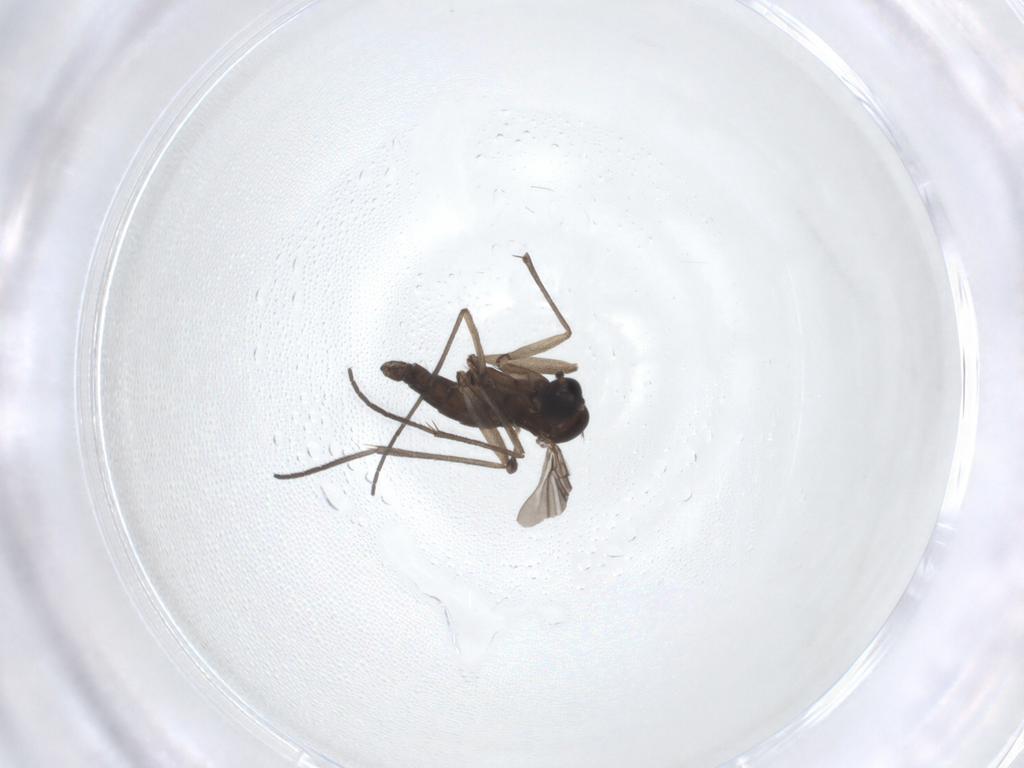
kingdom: Animalia
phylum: Arthropoda
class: Insecta
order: Diptera
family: Sciaridae
